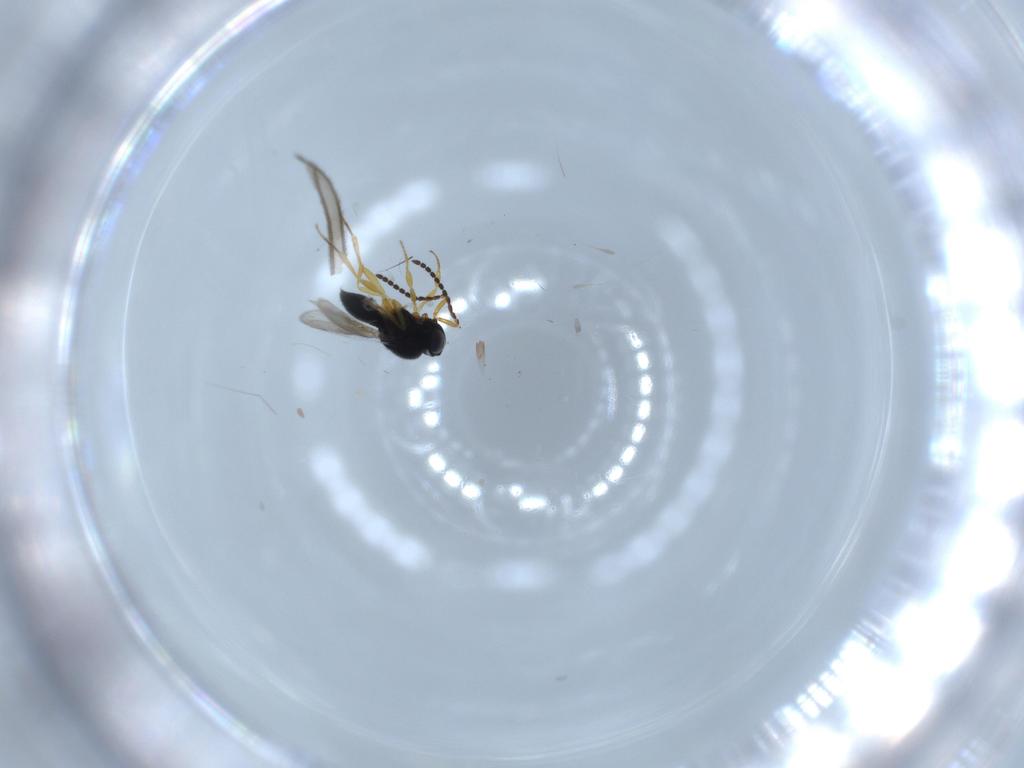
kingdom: Animalia
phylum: Arthropoda
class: Insecta
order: Hymenoptera
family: Scelionidae
